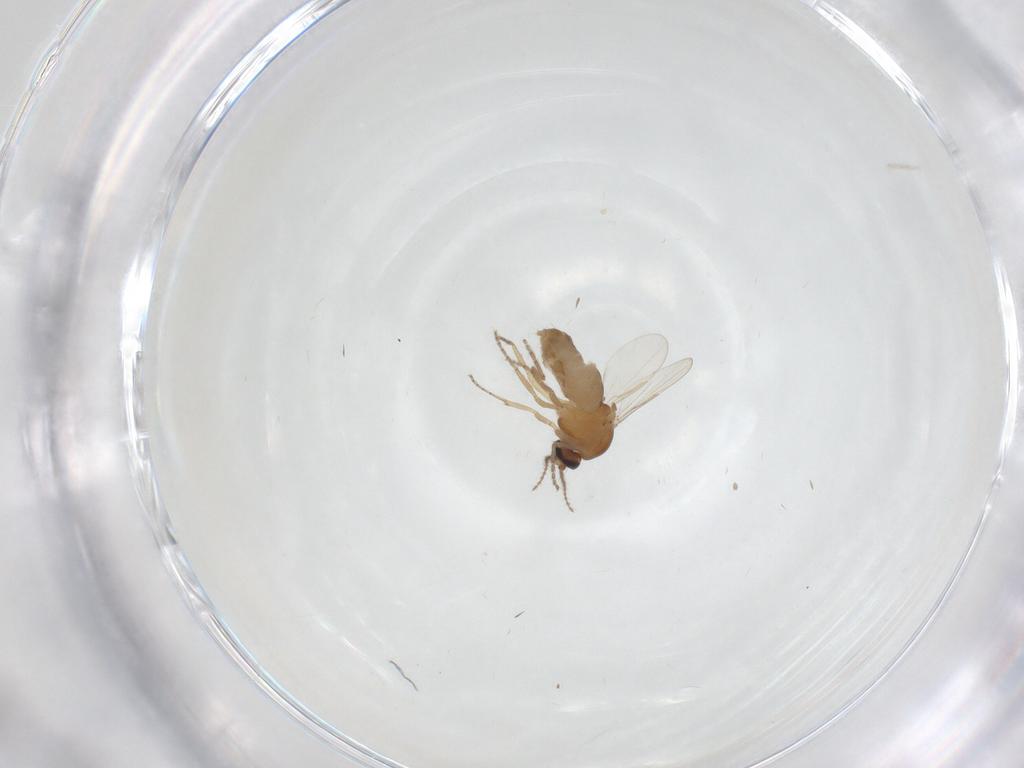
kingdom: Animalia
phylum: Arthropoda
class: Insecta
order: Diptera
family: Ceratopogonidae
